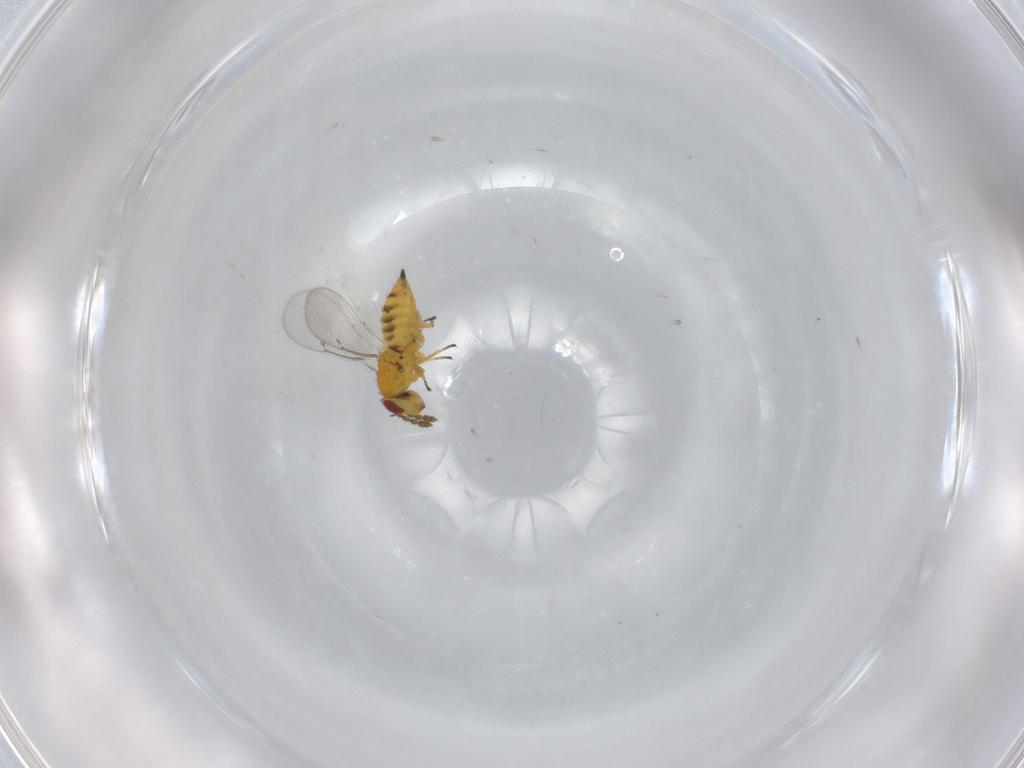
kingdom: Animalia
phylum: Arthropoda
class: Insecta
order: Hymenoptera
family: Eulophidae
